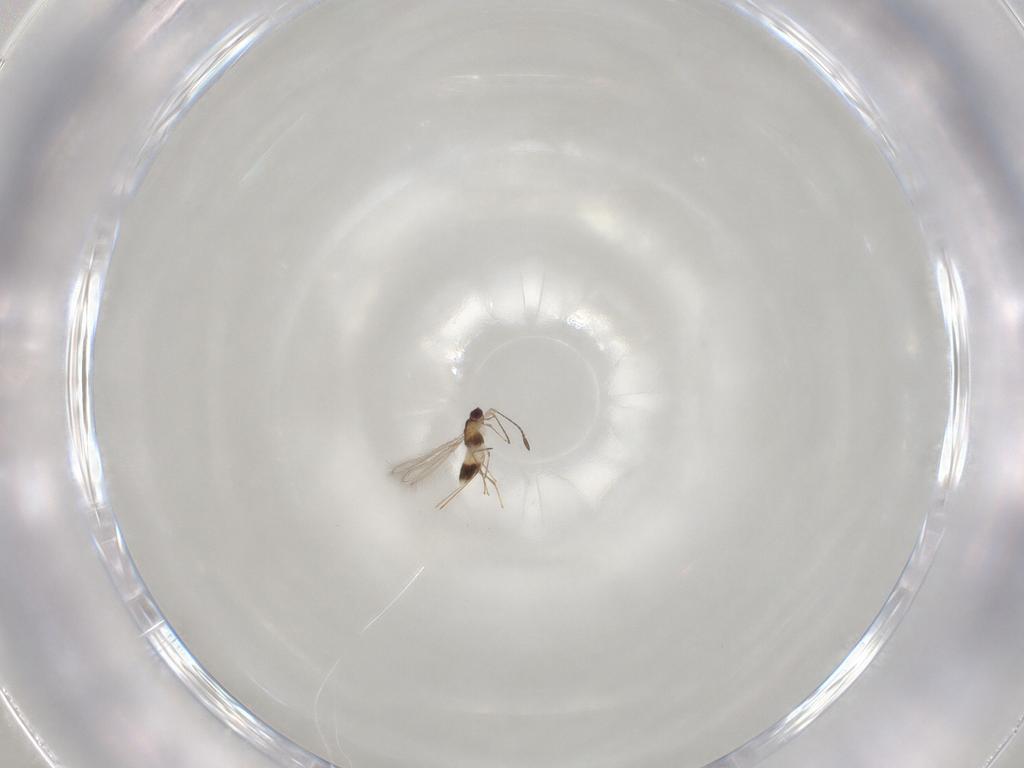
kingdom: Animalia
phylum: Arthropoda
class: Insecta
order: Hymenoptera
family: Mymaridae
